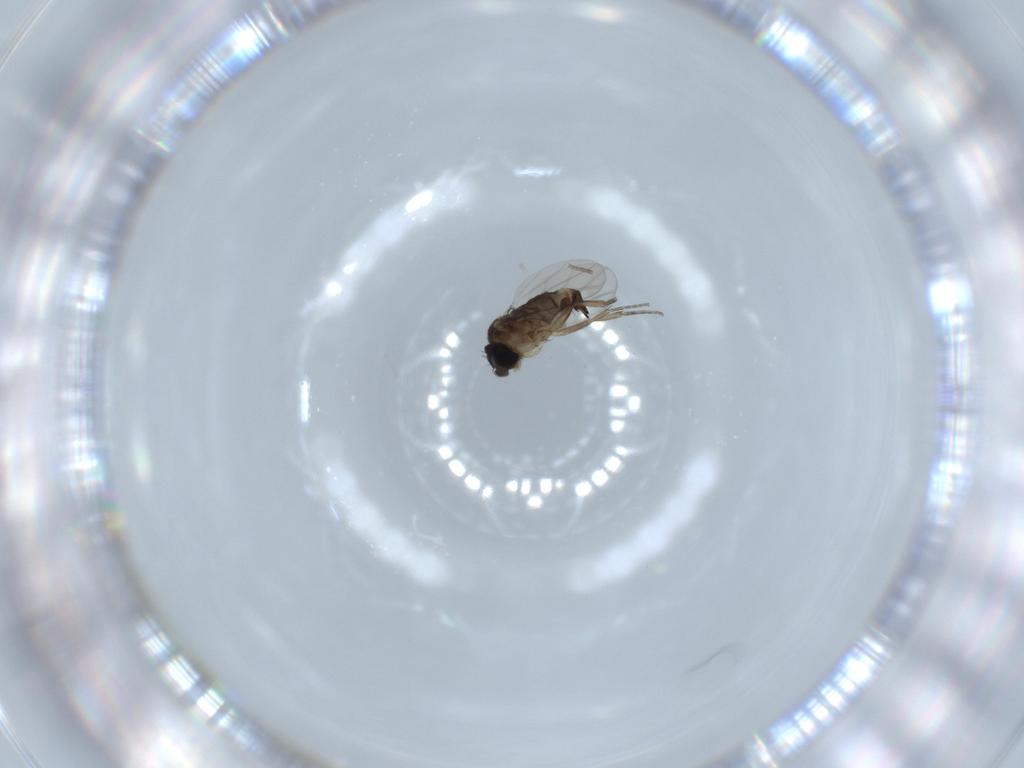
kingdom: Animalia
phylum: Arthropoda
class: Insecta
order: Diptera
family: Phoridae
